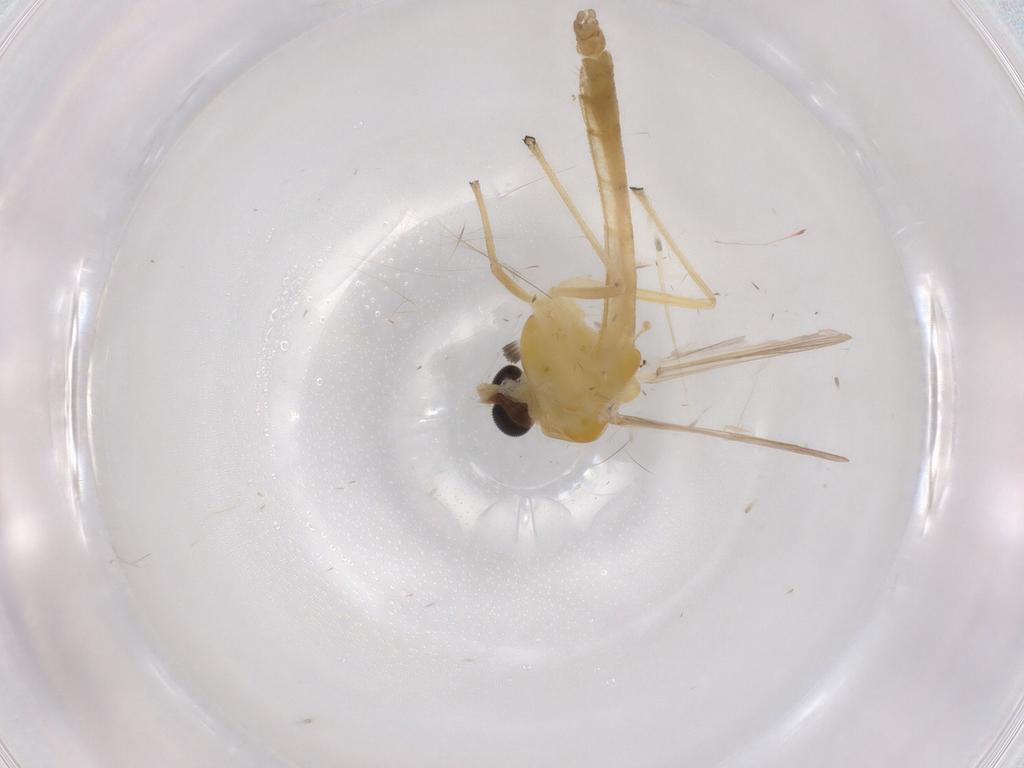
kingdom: Animalia
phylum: Arthropoda
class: Insecta
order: Diptera
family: Chironomidae
